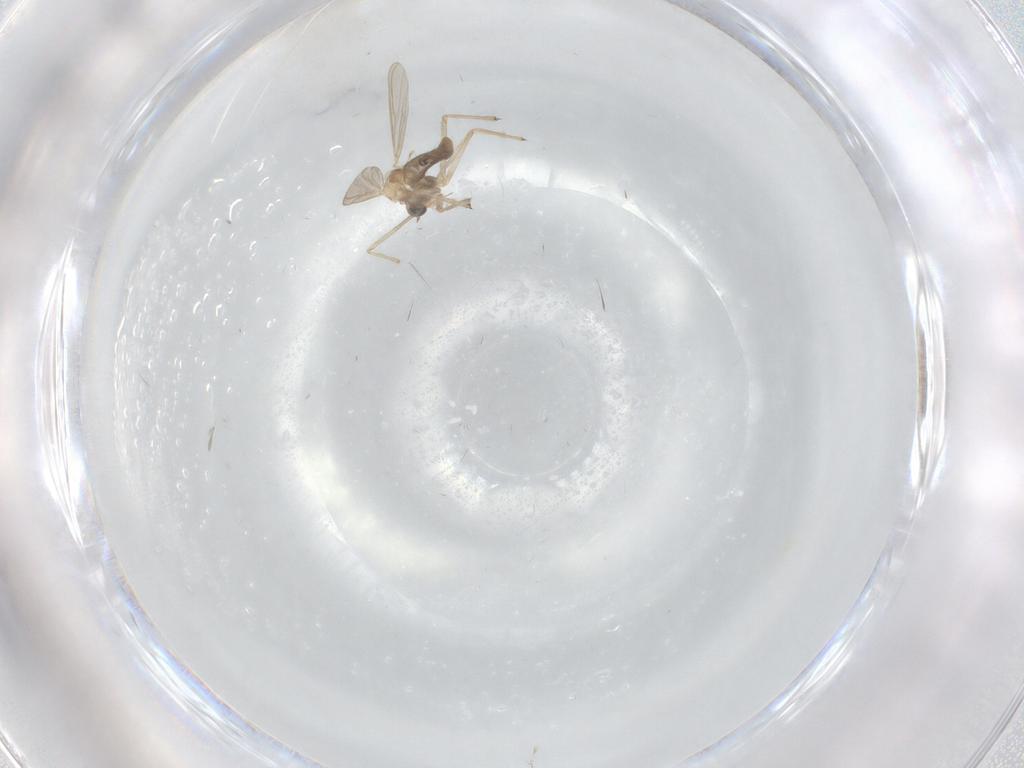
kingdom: Animalia
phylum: Arthropoda
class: Insecta
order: Diptera
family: Chironomidae
